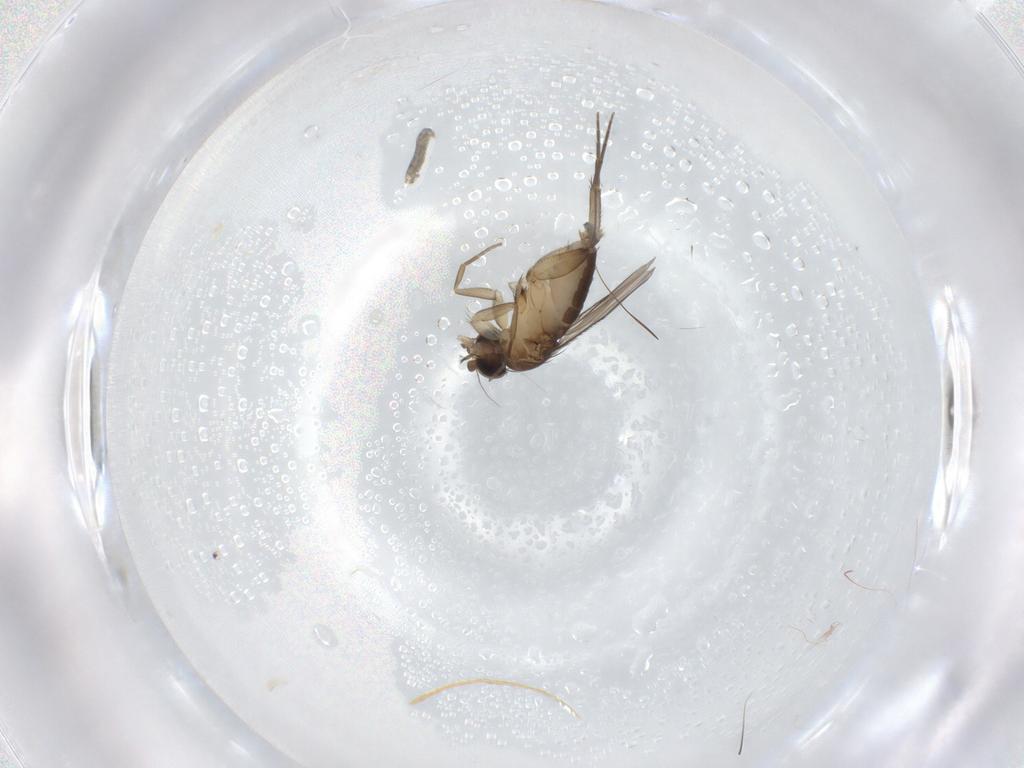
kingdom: Animalia
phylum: Arthropoda
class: Insecta
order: Diptera
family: Phoridae
